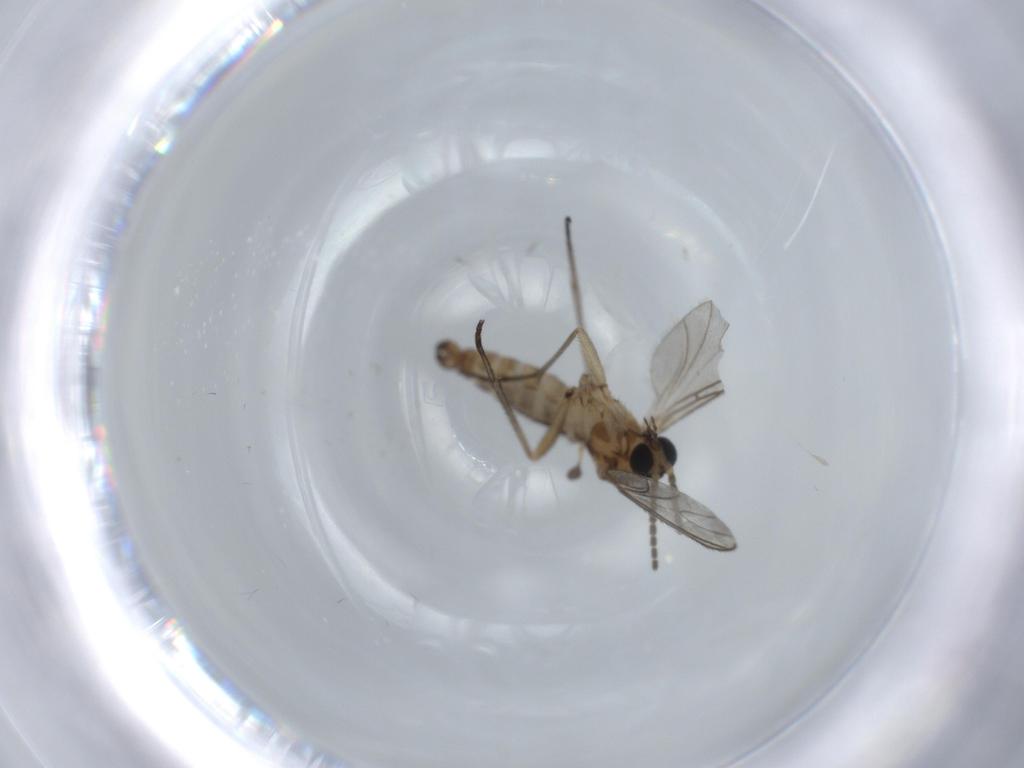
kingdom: Animalia
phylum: Arthropoda
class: Insecta
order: Diptera
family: Sciaridae
